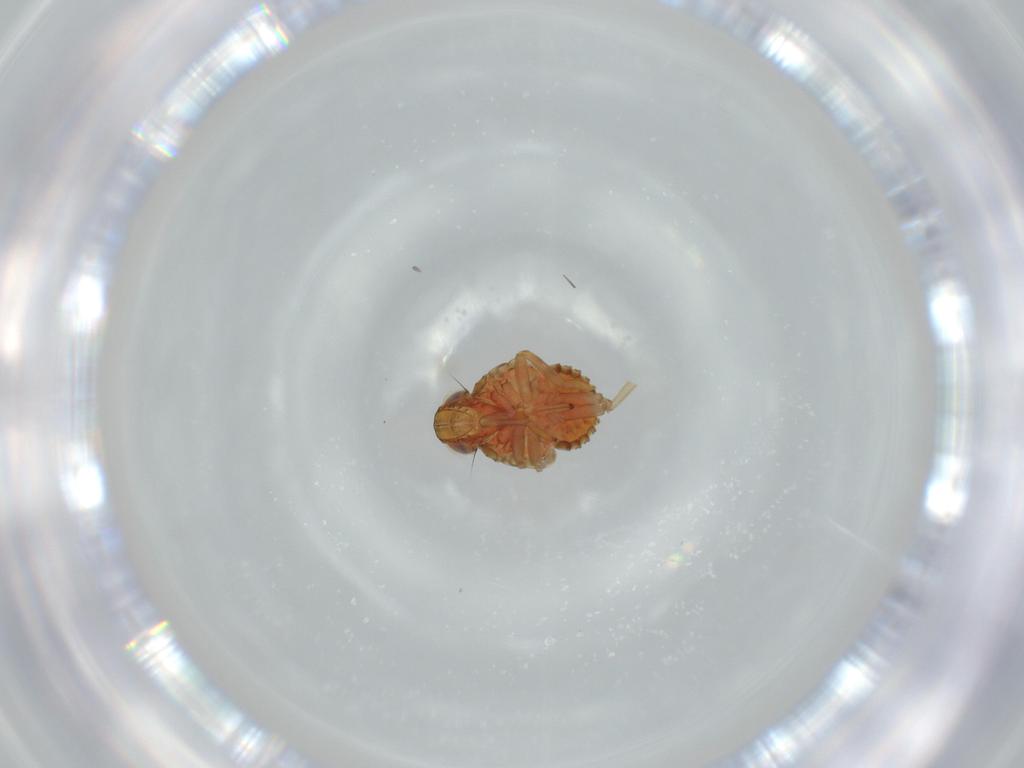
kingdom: Animalia
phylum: Arthropoda
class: Insecta
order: Hemiptera
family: Issidae
